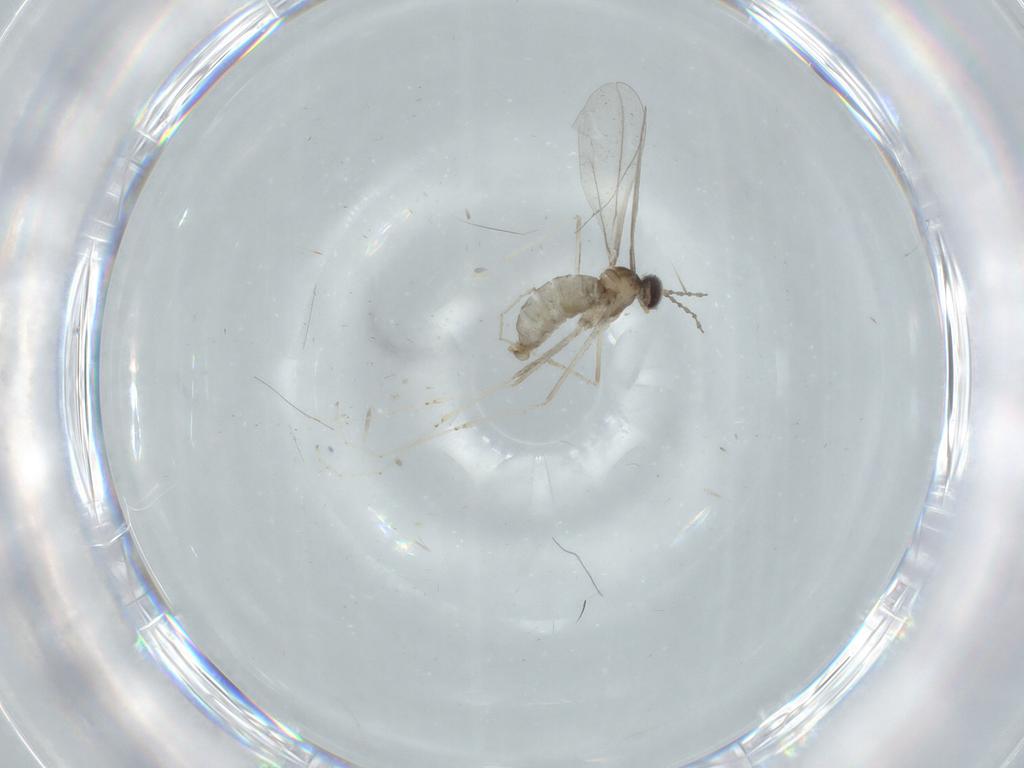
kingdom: Animalia
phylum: Arthropoda
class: Insecta
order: Diptera
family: Cecidomyiidae
